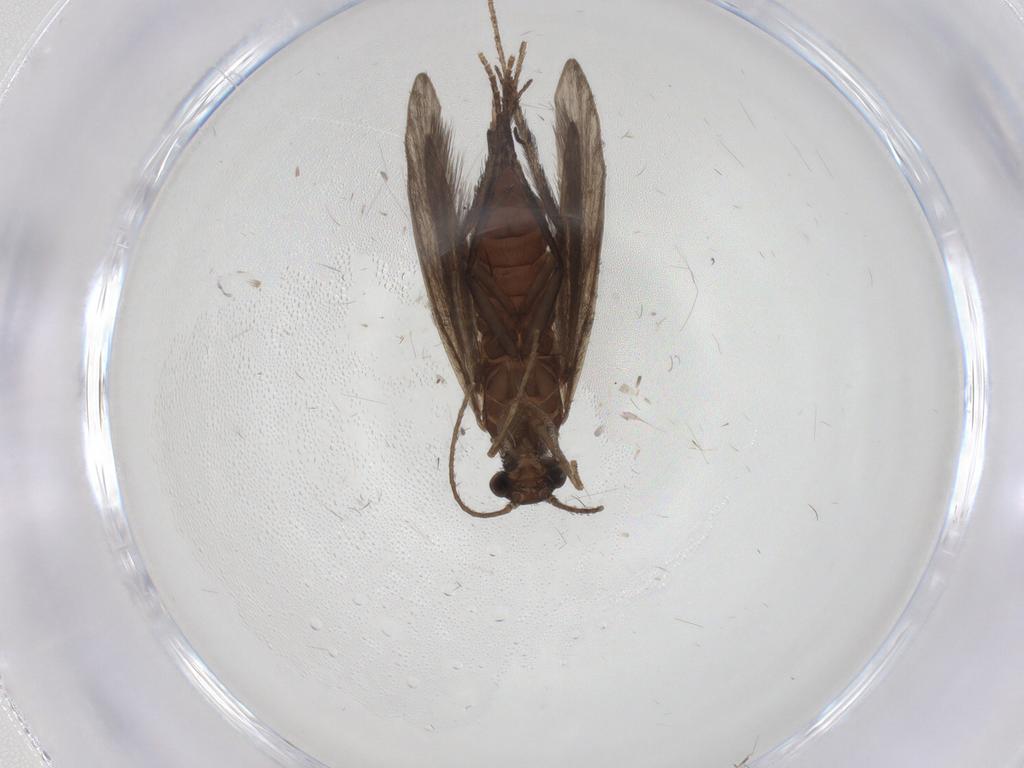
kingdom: Animalia
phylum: Arthropoda
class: Insecta
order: Trichoptera
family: Xiphocentronidae
